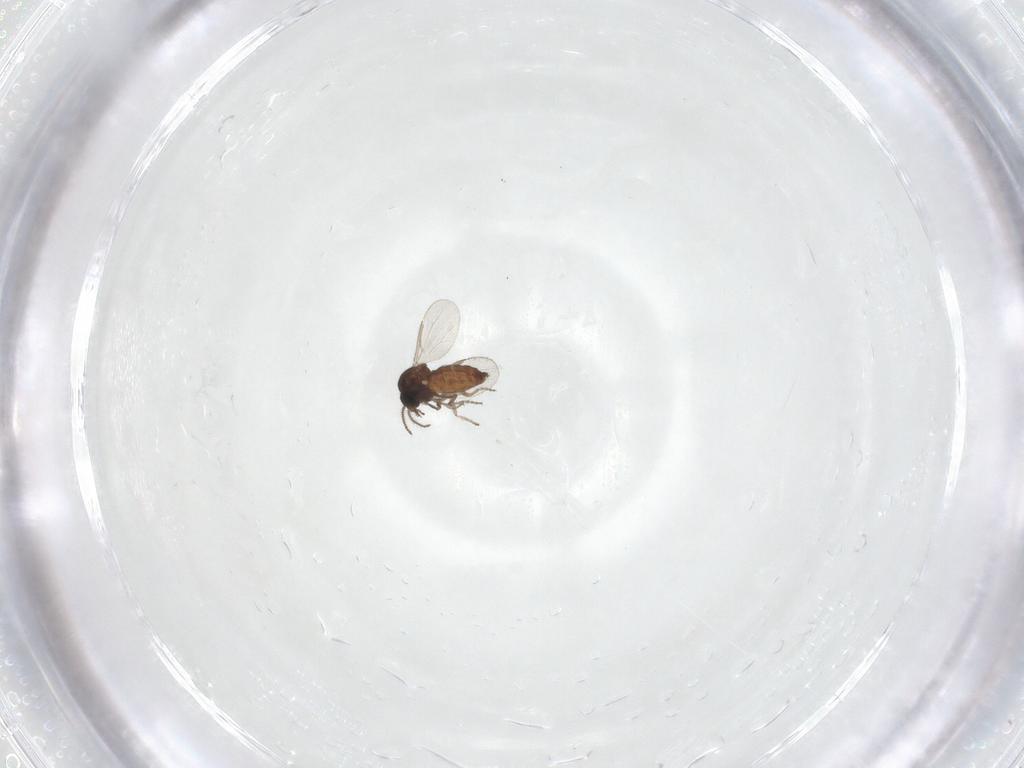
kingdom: Animalia
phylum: Arthropoda
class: Insecta
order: Diptera
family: Ceratopogonidae
